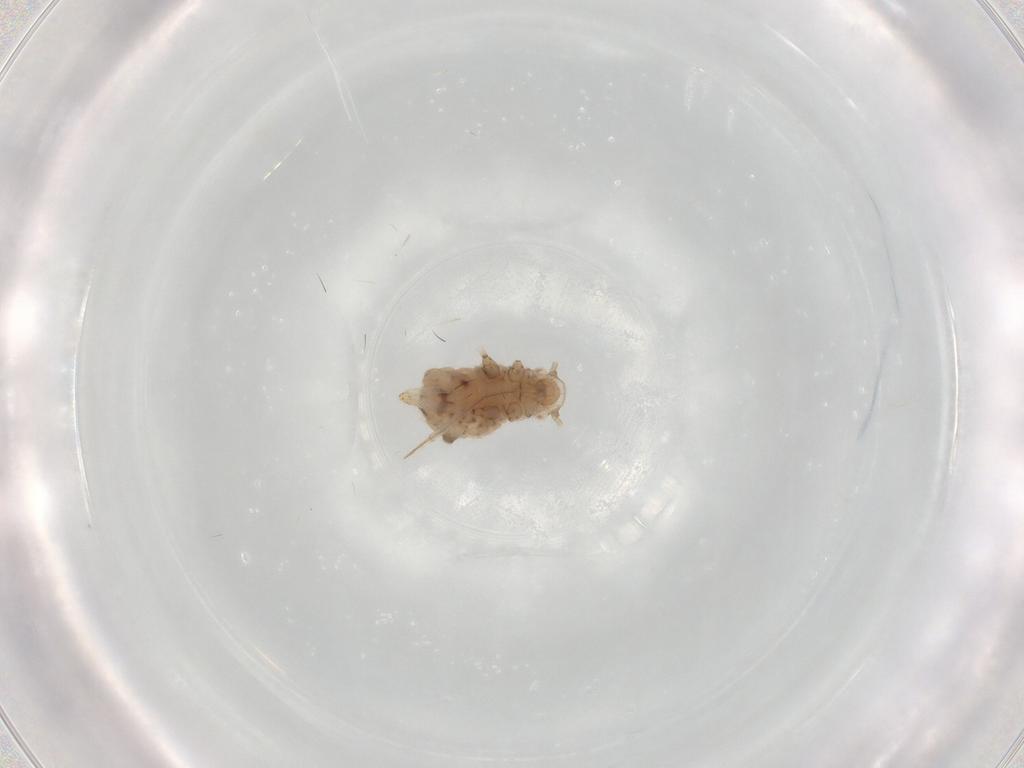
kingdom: Animalia
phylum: Arthropoda
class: Insecta
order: Hemiptera
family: Aphididae
